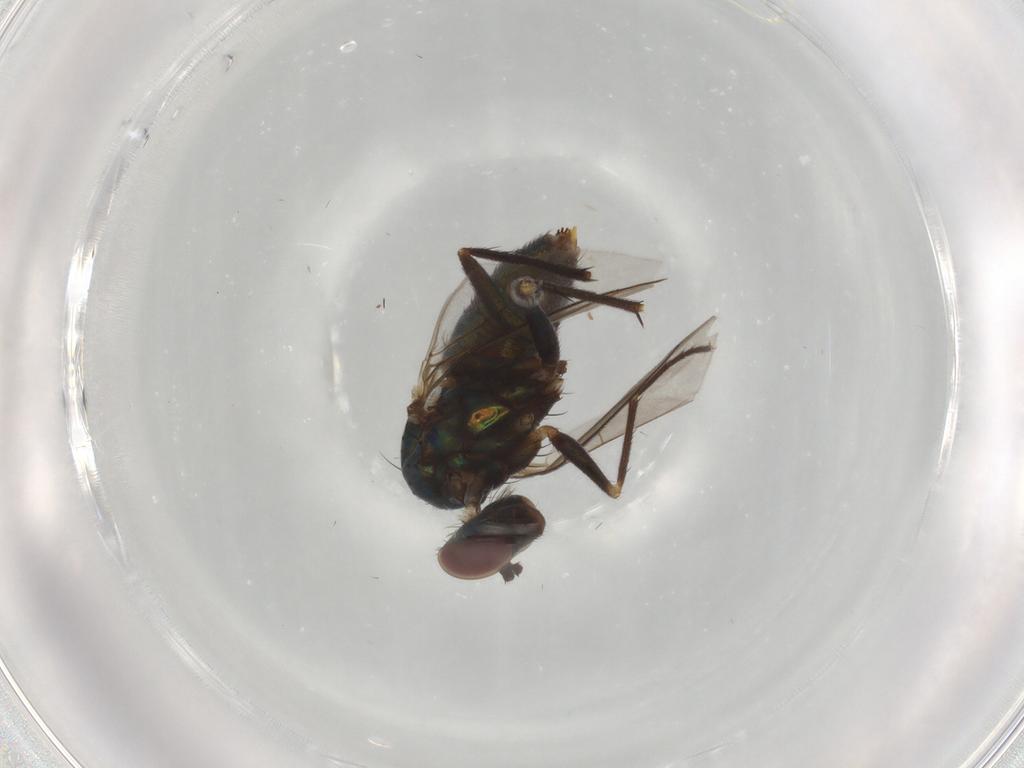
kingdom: Animalia
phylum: Arthropoda
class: Insecta
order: Diptera
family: Dolichopodidae
